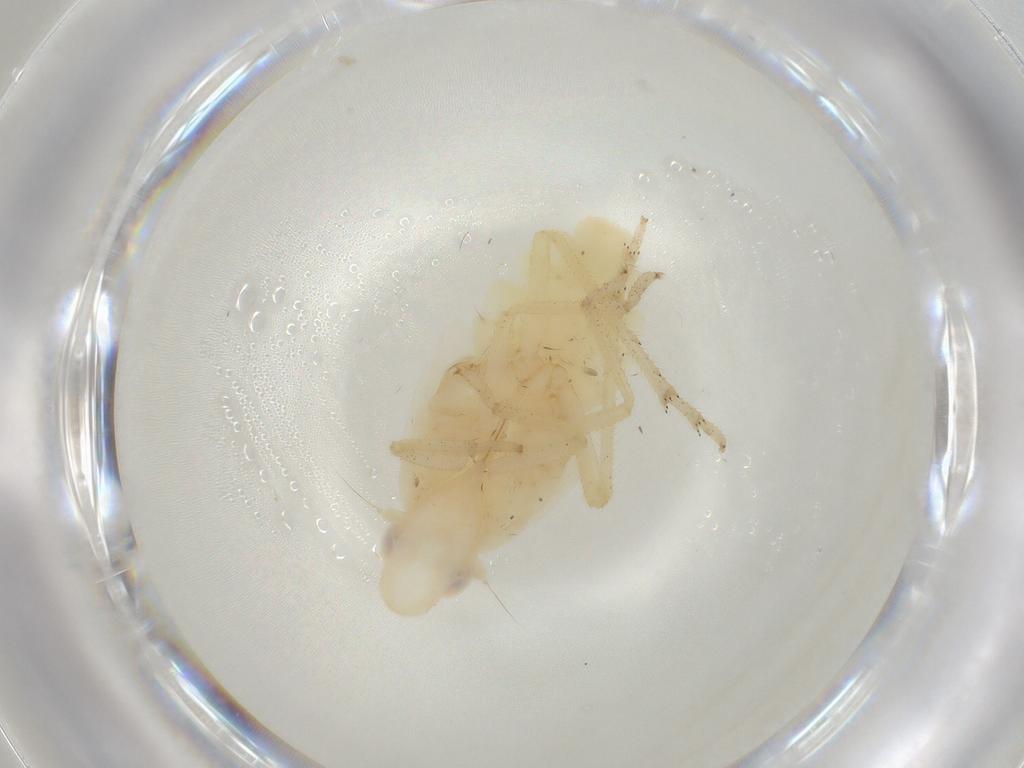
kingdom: Animalia
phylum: Arthropoda
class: Insecta
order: Hemiptera
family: Tropiduchidae
